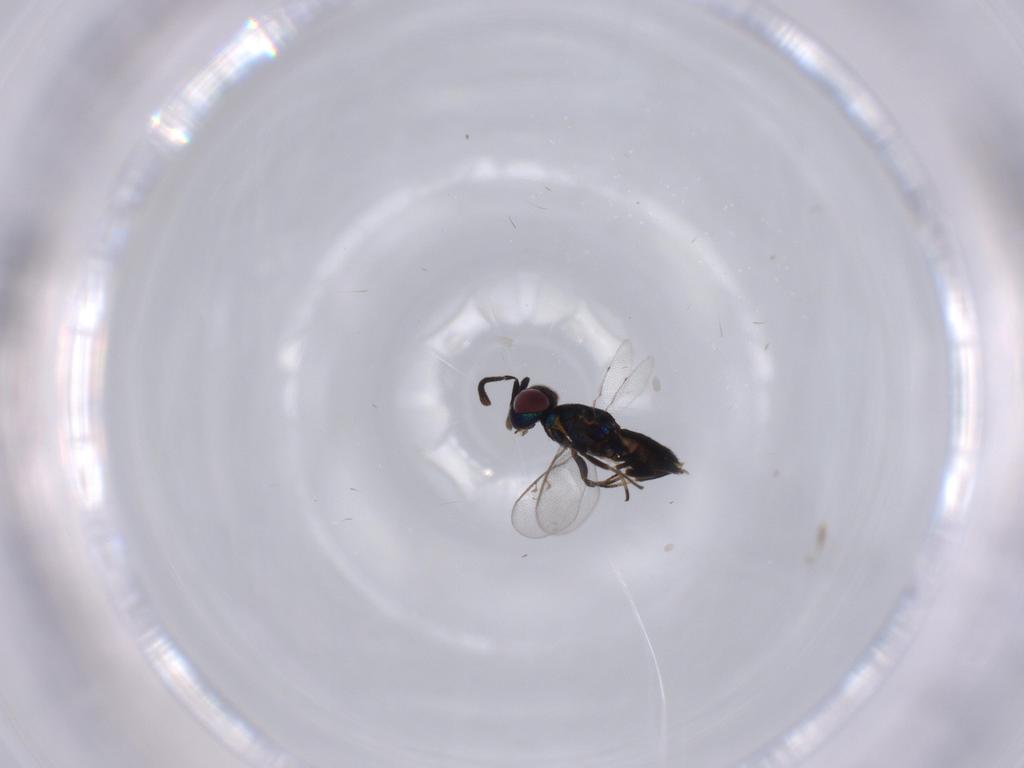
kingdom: Animalia
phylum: Arthropoda
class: Insecta
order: Hymenoptera
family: Eupelmidae
